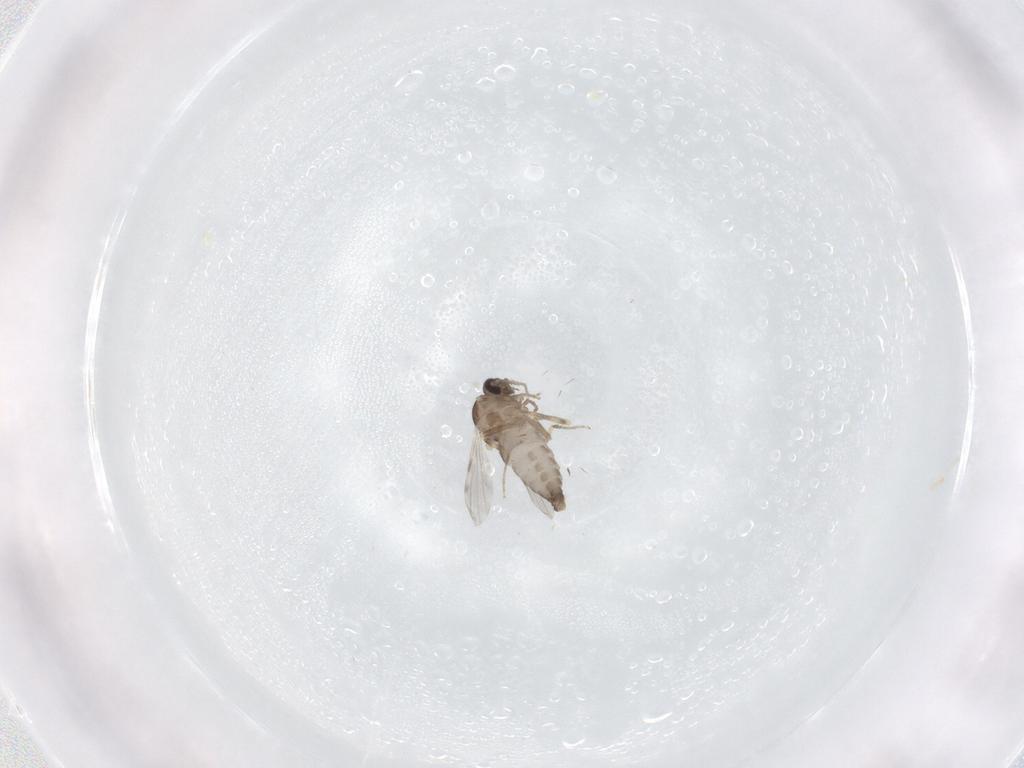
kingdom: Animalia
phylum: Arthropoda
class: Insecta
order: Diptera
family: Ceratopogonidae
